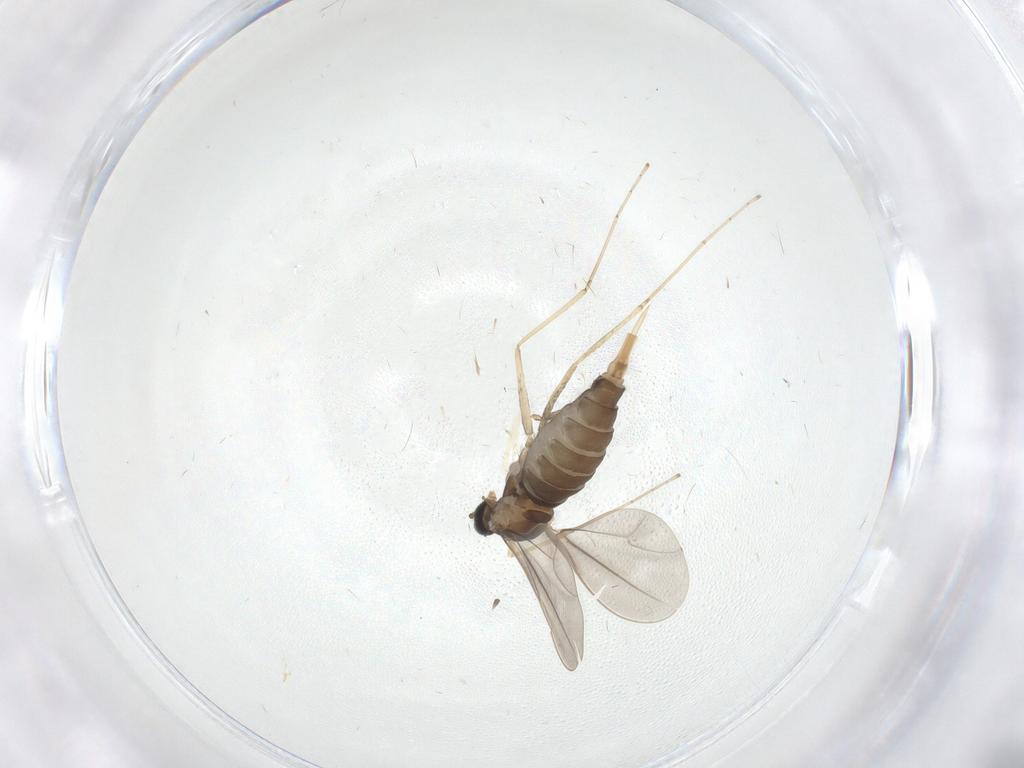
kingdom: Animalia
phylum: Arthropoda
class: Insecta
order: Diptera
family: Cecidomyiidae
